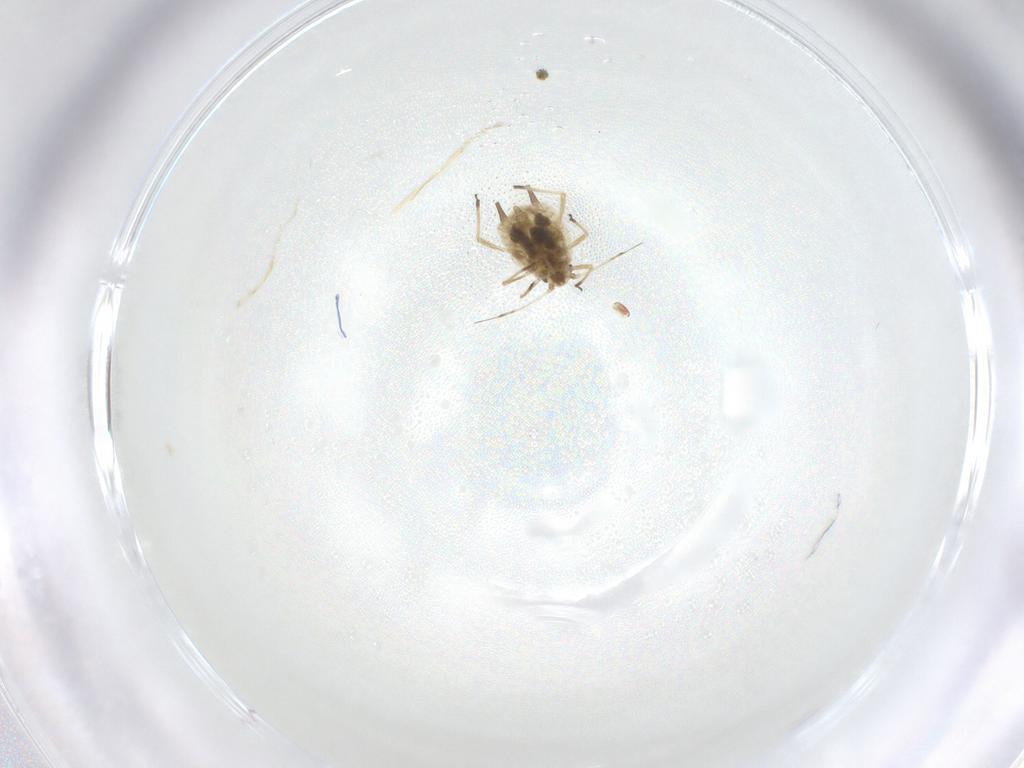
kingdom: Animalia
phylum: Arthropoda
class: Insecta
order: Hemiptera
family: Aphididae
